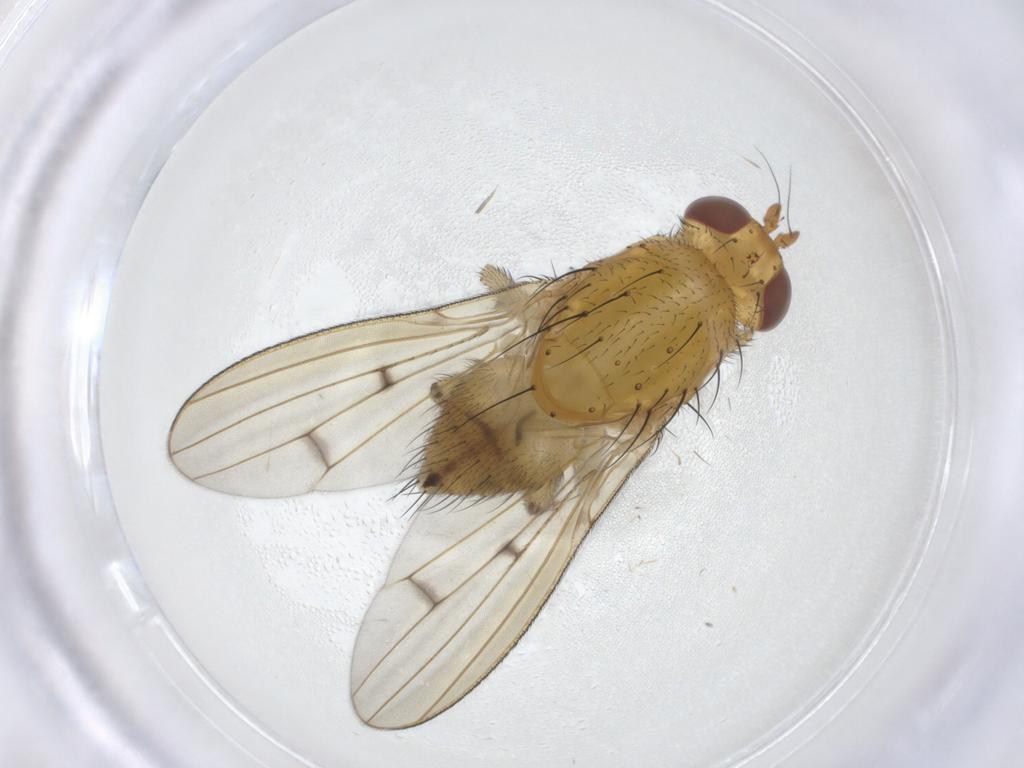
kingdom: Animalia
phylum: Arthropoda
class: Insecta
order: Diptera
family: Lauxaniidae
